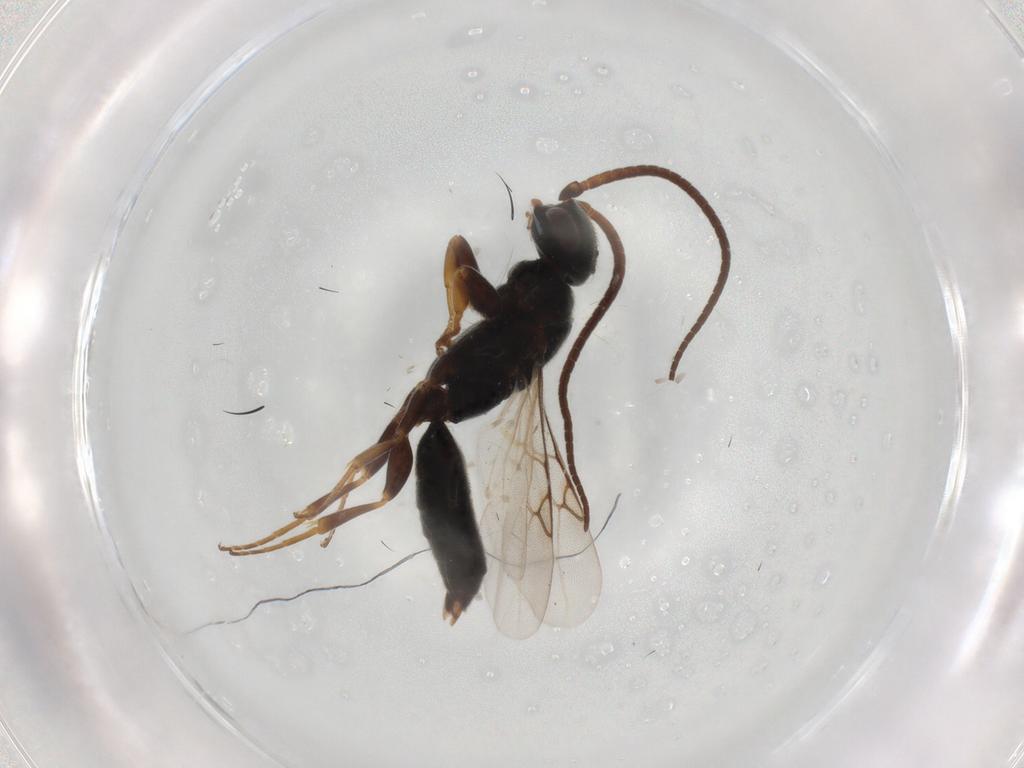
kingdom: Animalia
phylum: Arthropoda
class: Insecta
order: Hymenoptera
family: Sclerogibbidae
